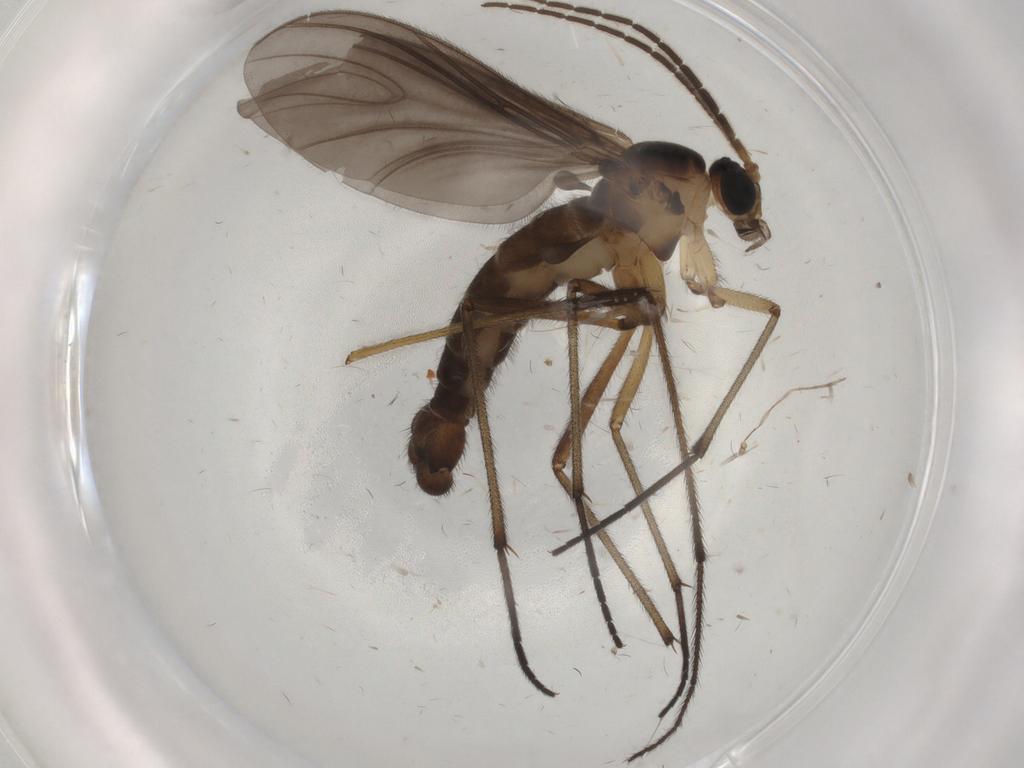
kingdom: Animalia
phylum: Arthropoda
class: Insecta
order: Diptera
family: Limoniidae
